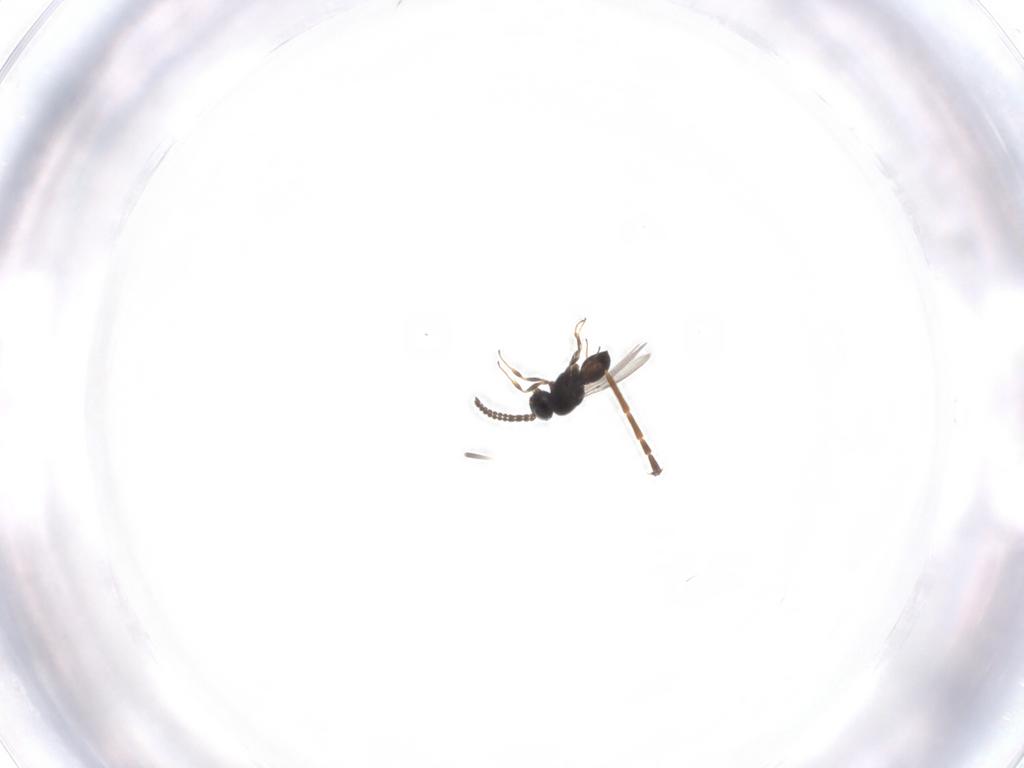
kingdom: Animalia
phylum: Arthropoda
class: Insecta
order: Hymenoptera
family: Scelionidae
